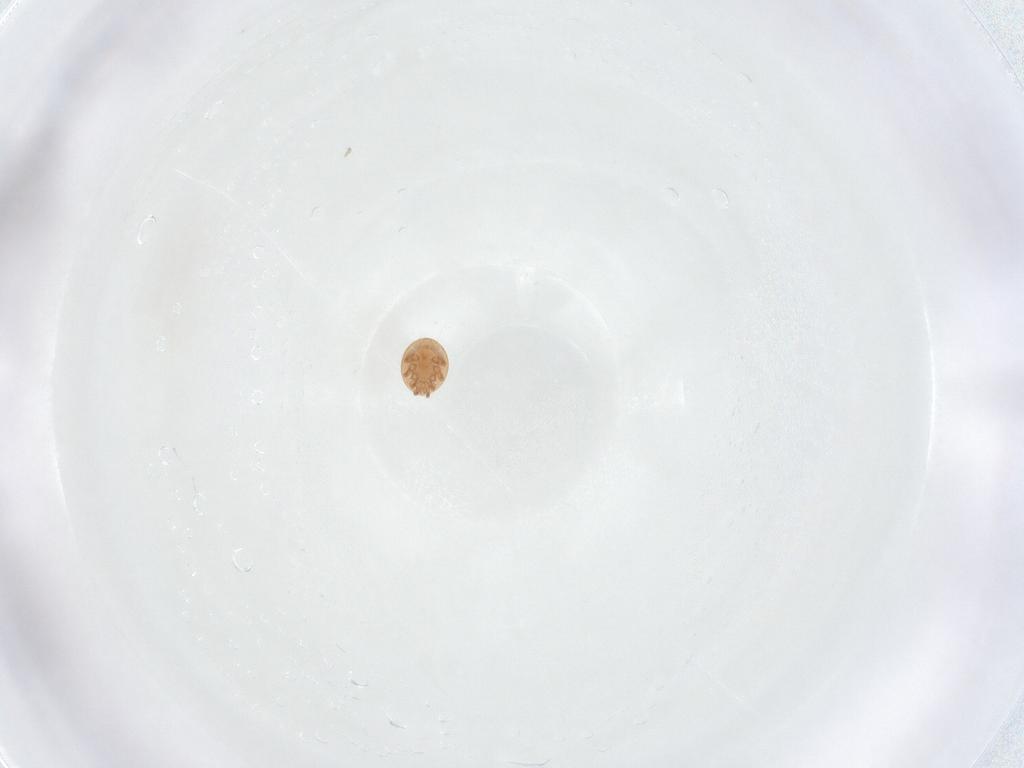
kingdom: Animalia
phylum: Arthropoda
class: Arachnida
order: Mesostigmata
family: Trematuridae
